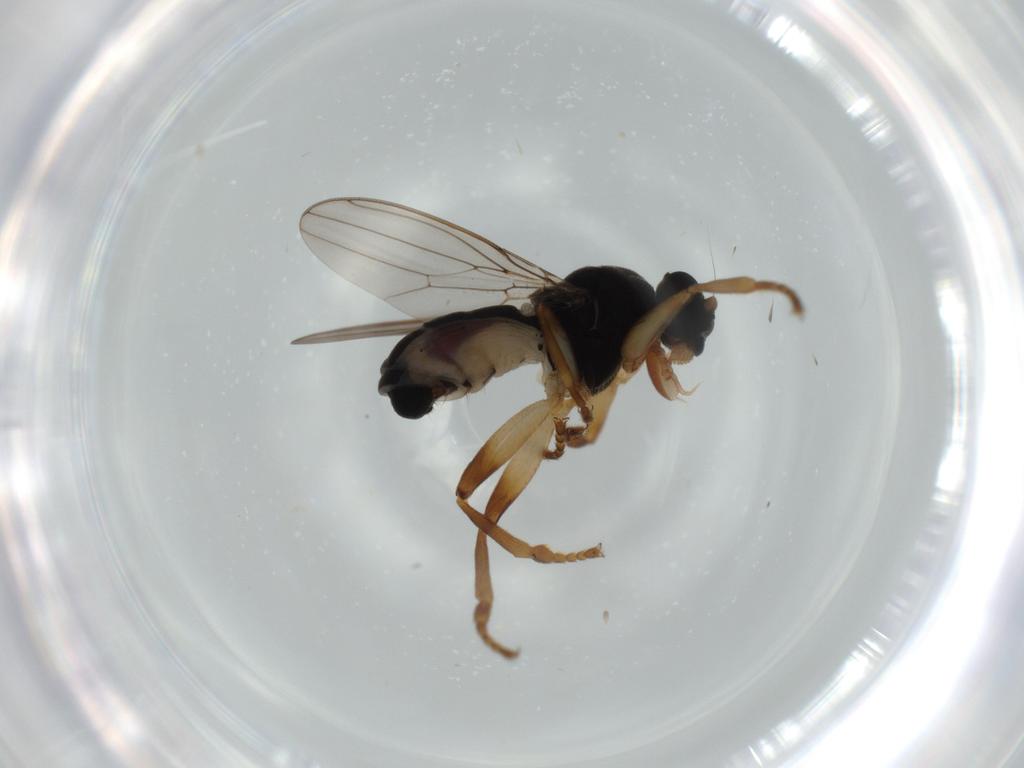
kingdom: Animalia
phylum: Arthropoda
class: Insecta
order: Diptera
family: Sphaeroceridae
